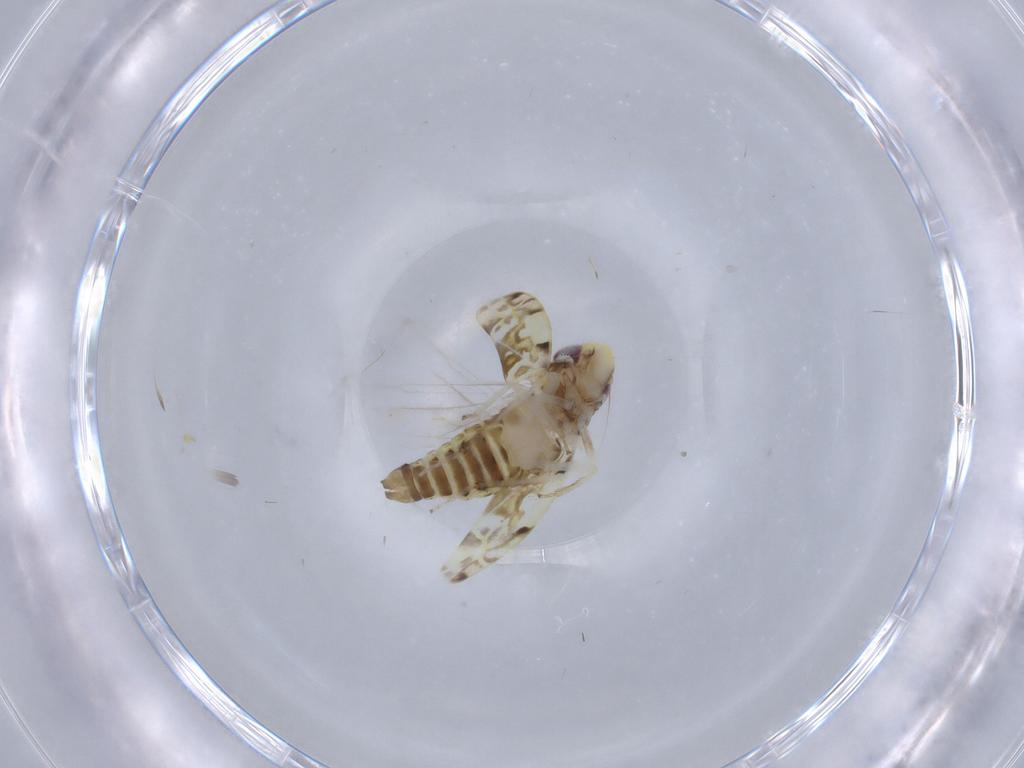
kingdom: Animalia
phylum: Arthropoda
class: Insecta
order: Hemiptera
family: Cicadellidae
